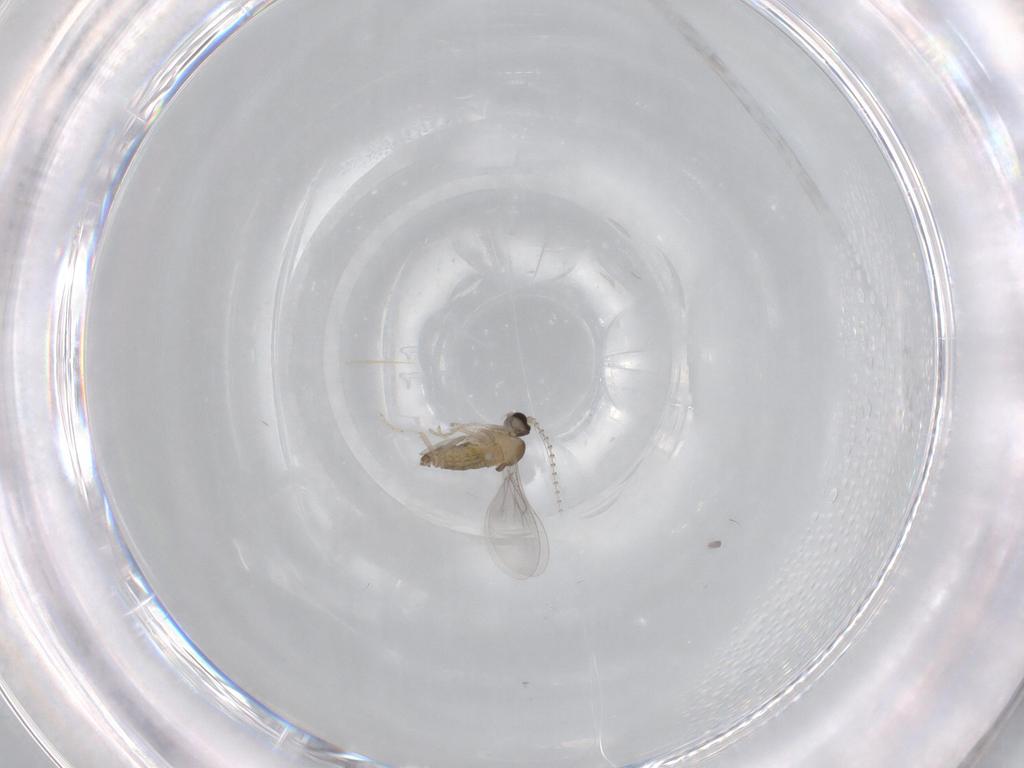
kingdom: Animalia
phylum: Arthropoda
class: Insecta
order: Diptera
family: Cecidomyiidae
